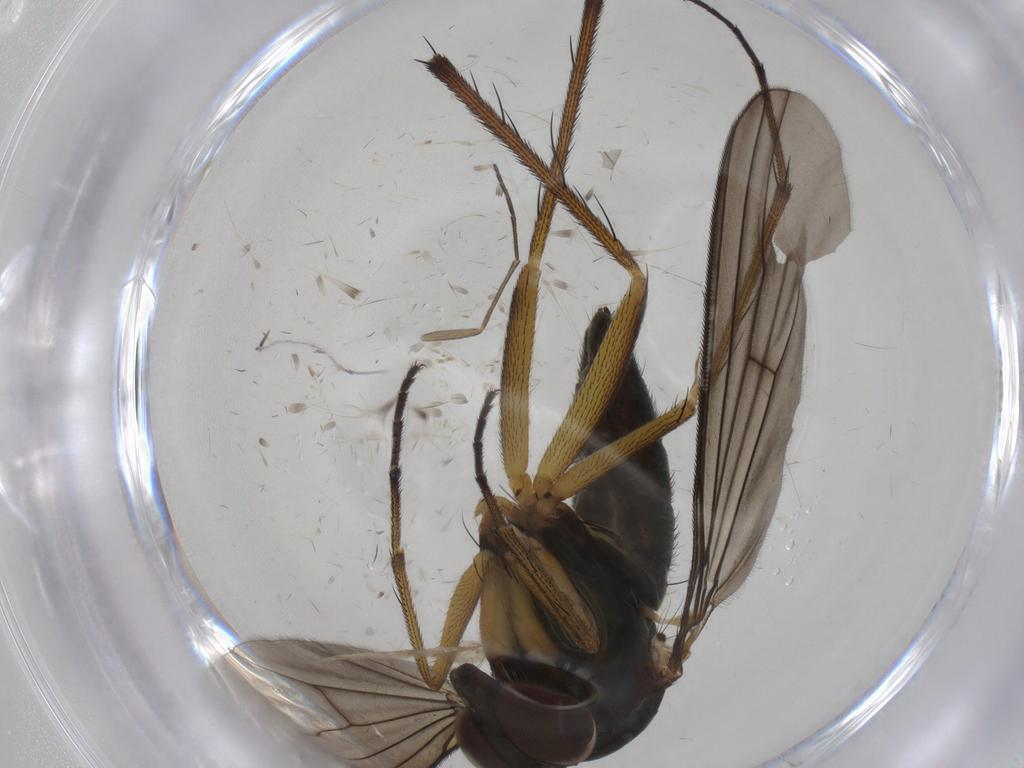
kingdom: Animalia
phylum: Arthropoda
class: Insecta
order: Diptera
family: Dolichopodidae
